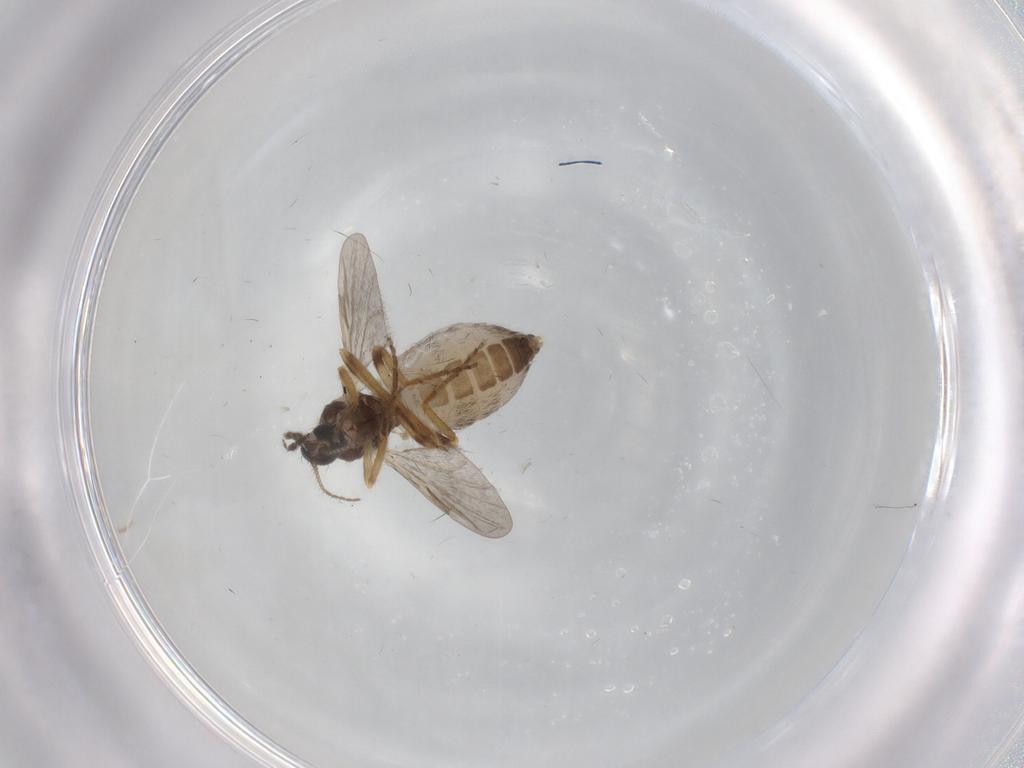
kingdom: Animalia
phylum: Arthropoda
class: Insecta
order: Diptera
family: Ceratopogonidae
